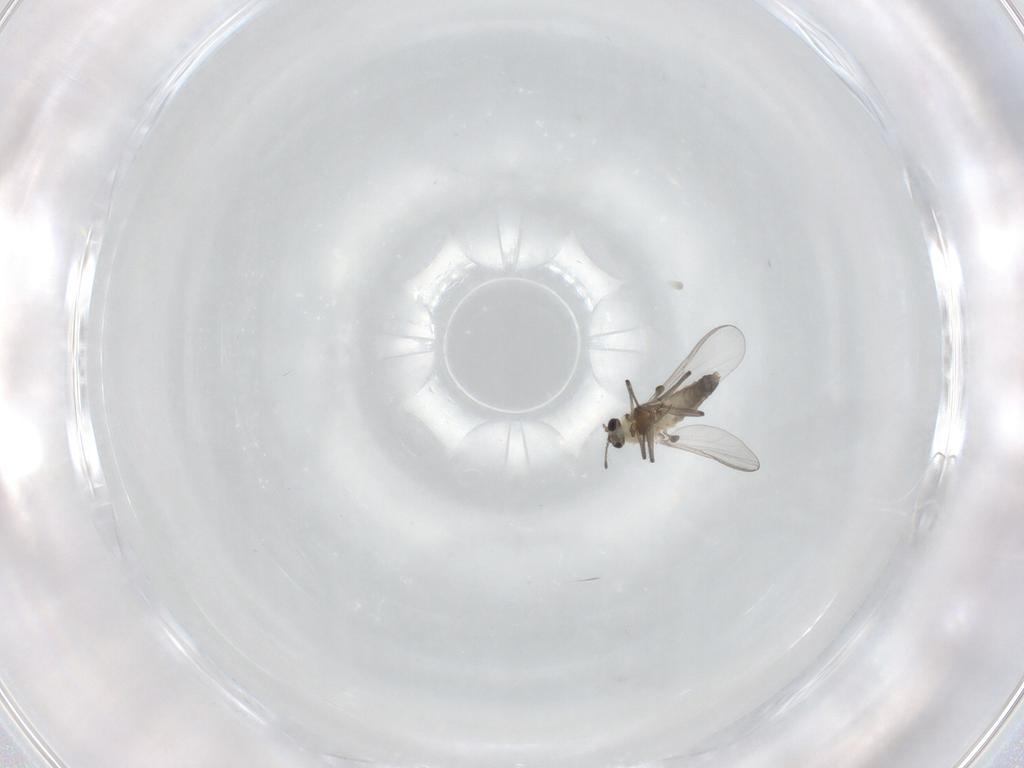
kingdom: Animalia
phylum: Arthropoda
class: Insecta
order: Diptera
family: Chironomidae
